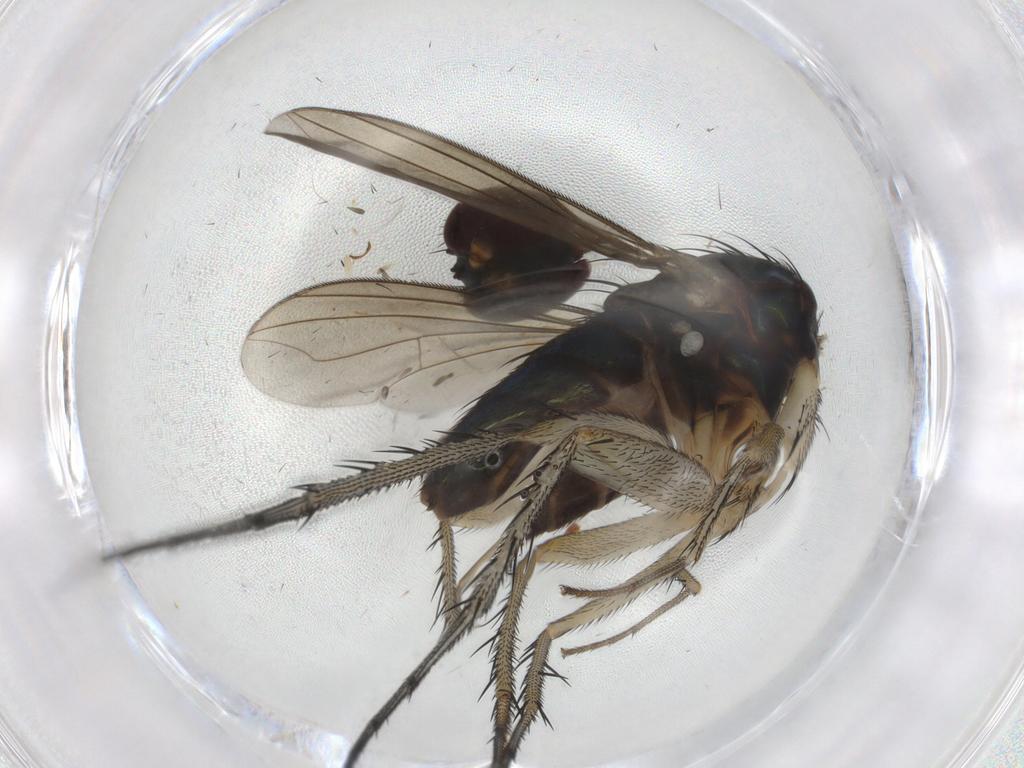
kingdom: Animalia
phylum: Arthropoda
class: Insecta
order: Diptera
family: Dolichopodidae
